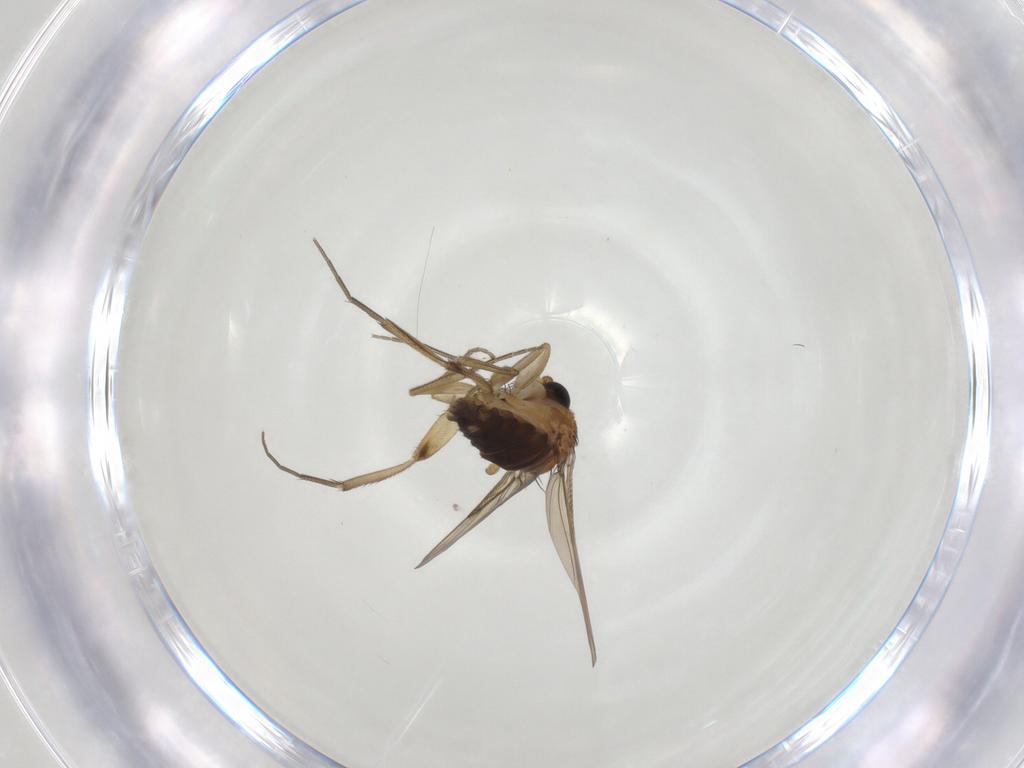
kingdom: Animalia
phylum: Arthropoda
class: Insecta
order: Diptera
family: Phoridae
